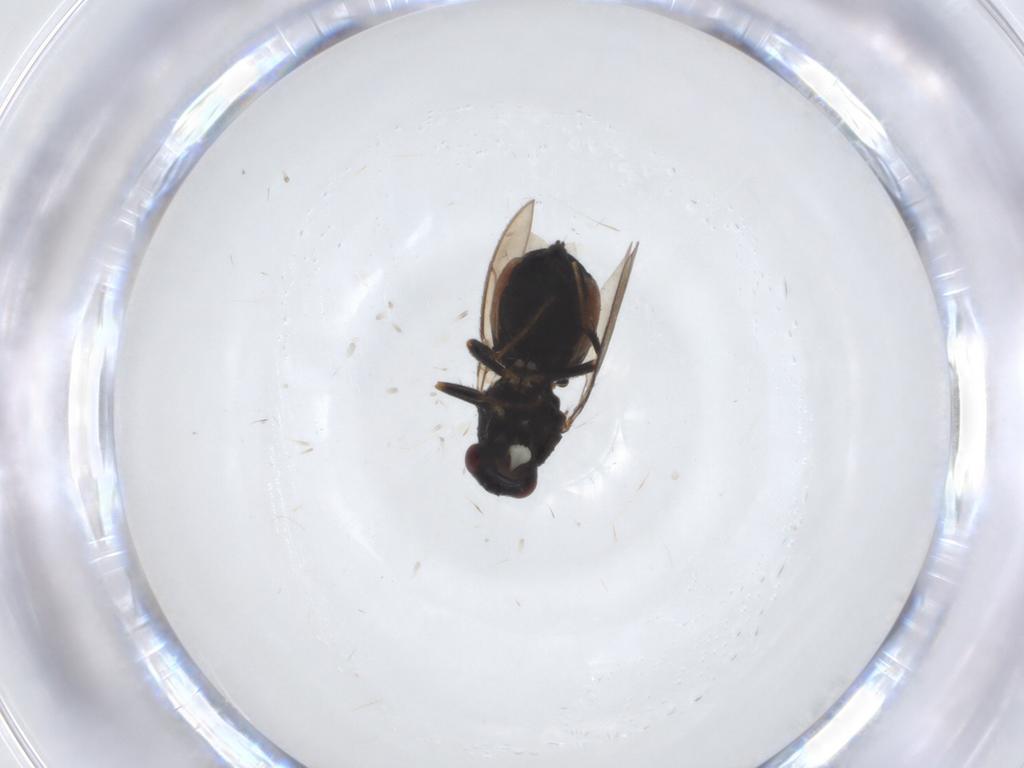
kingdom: Animalia
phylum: Arthropoda
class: Insecta
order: Diptera
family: Sphaeroceridae
